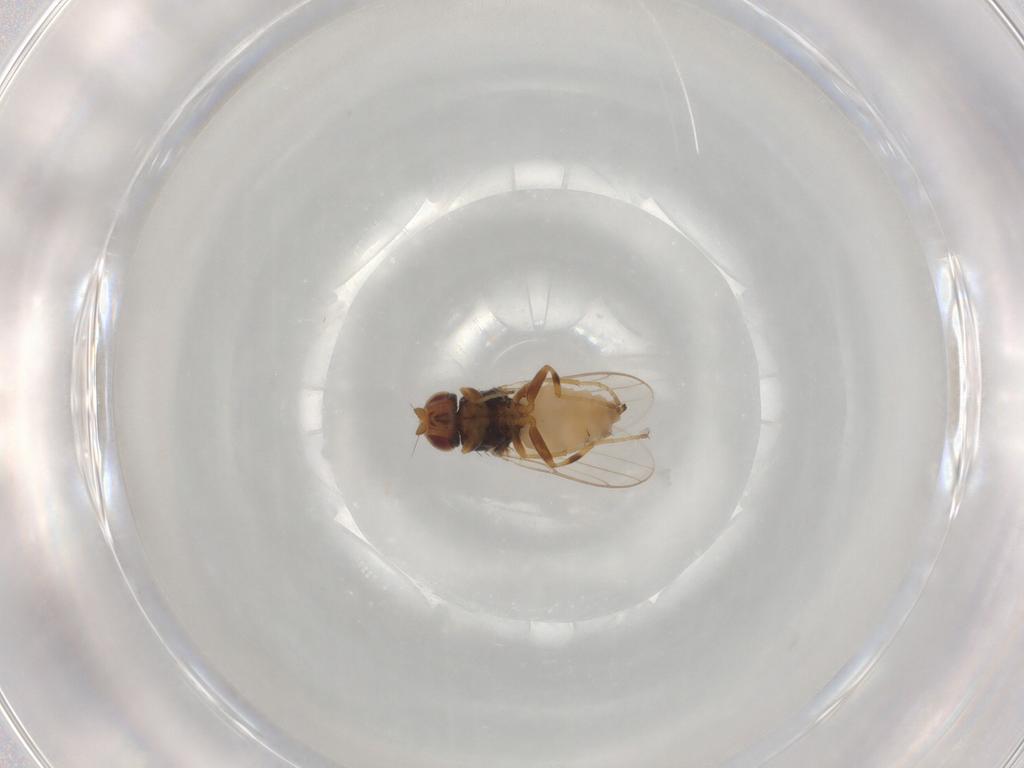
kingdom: Animalia
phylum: Arthropoda
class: Insecta
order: Diptera
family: Chloropidae
